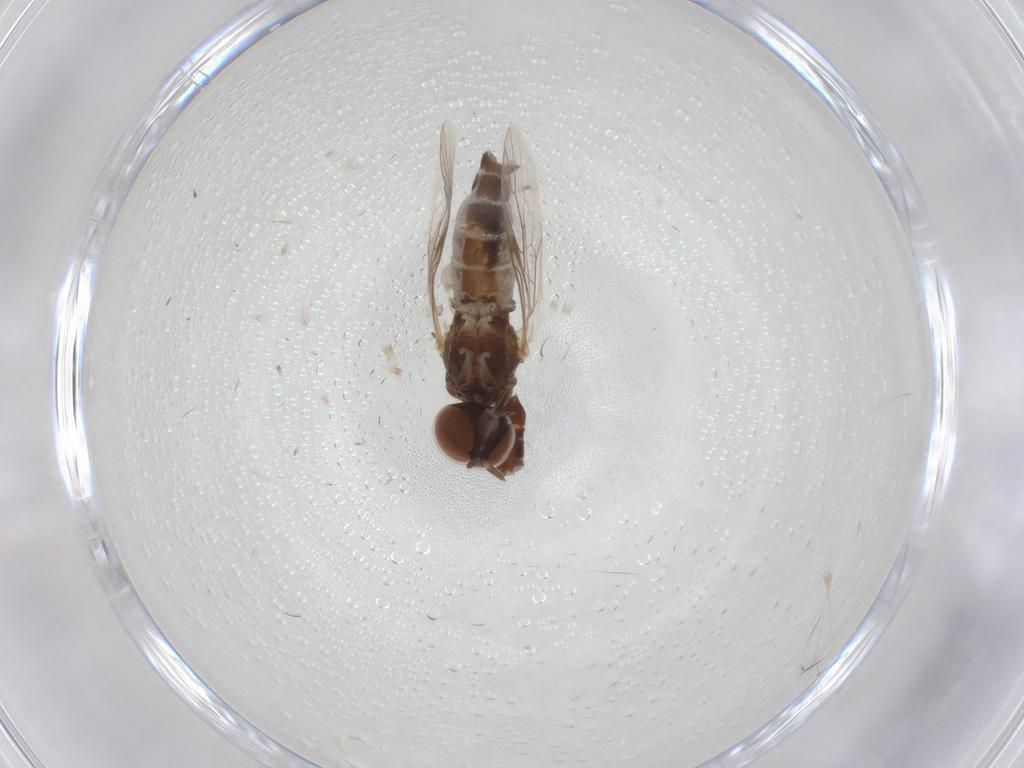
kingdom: Animalia
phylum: Arthropoda
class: Insecta
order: Diptera
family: Scenopinidae
